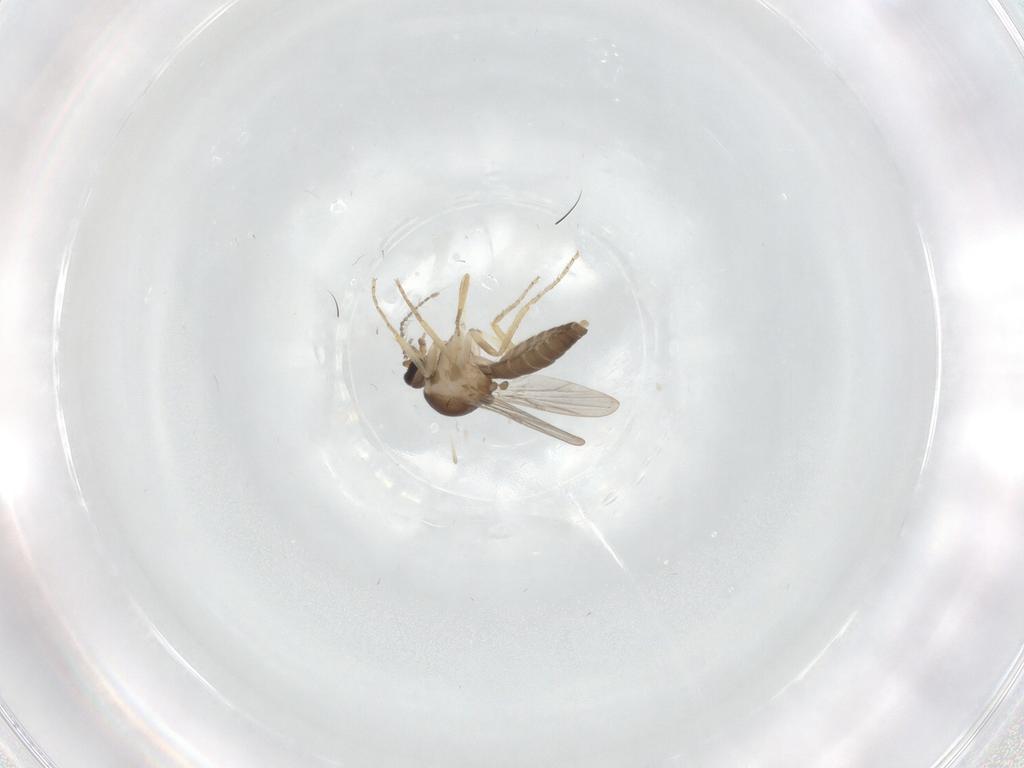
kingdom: Animalia
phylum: Arthropoda
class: Insecta
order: Diptera
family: Ceratopogonidae
